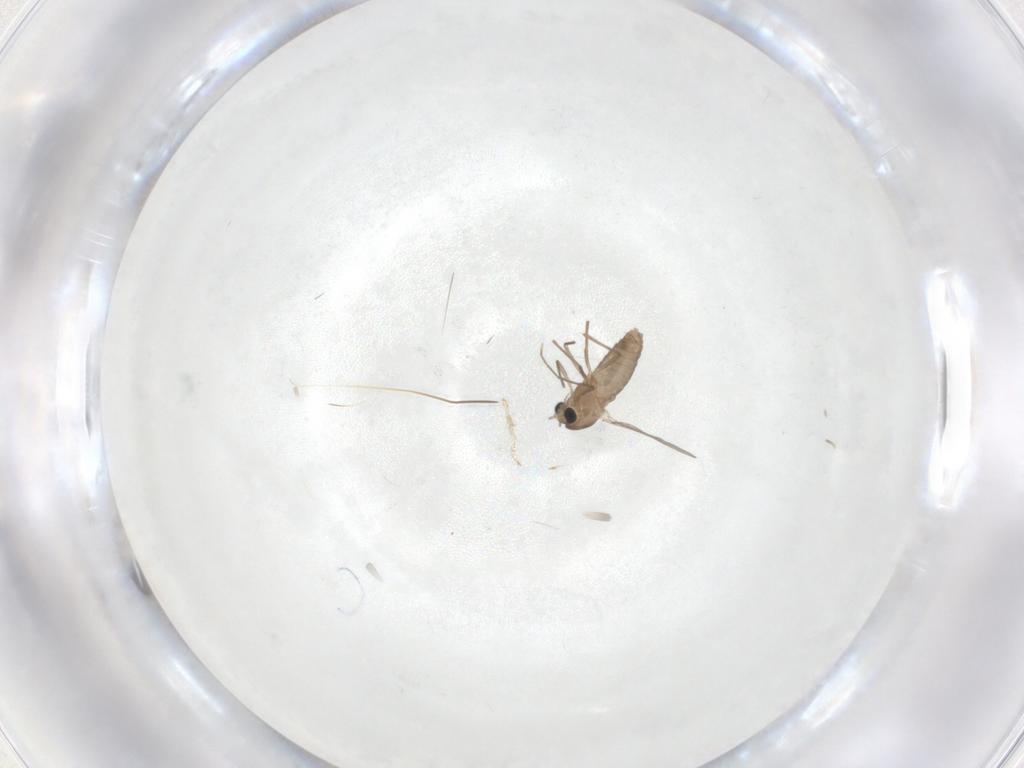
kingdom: Animalia
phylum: Arthropoda
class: Insecta
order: Diptera
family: Chironomidae
